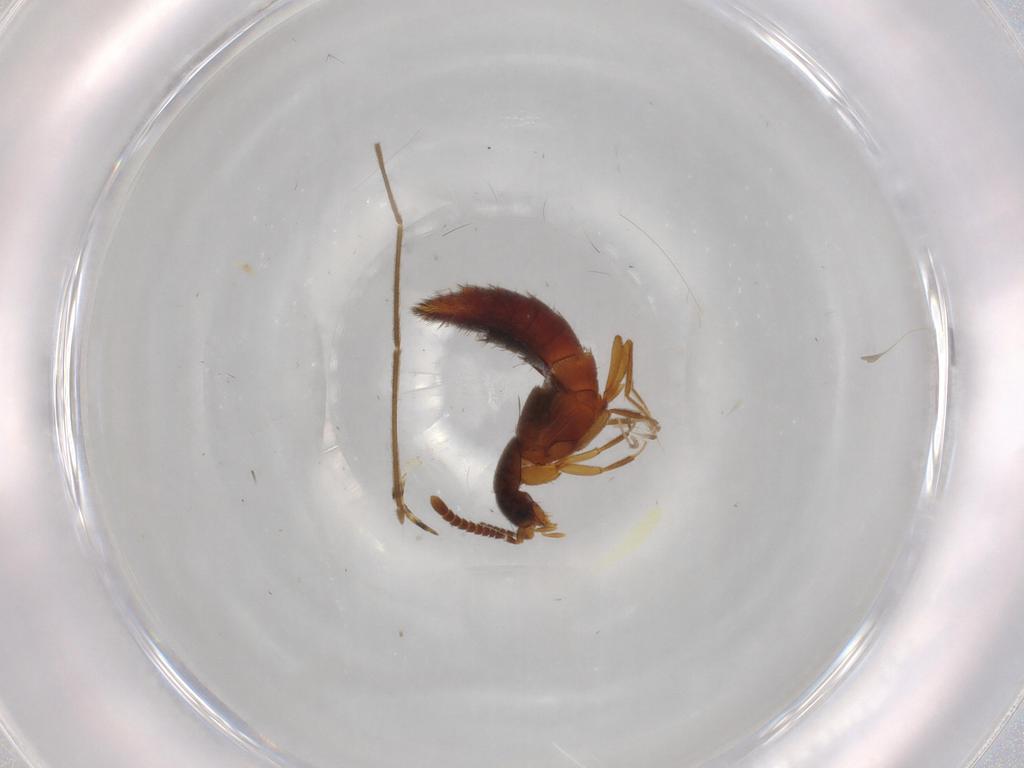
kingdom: Animalia
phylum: Arthropoda
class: Insecta
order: Coleoptera
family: Staphylinidae
